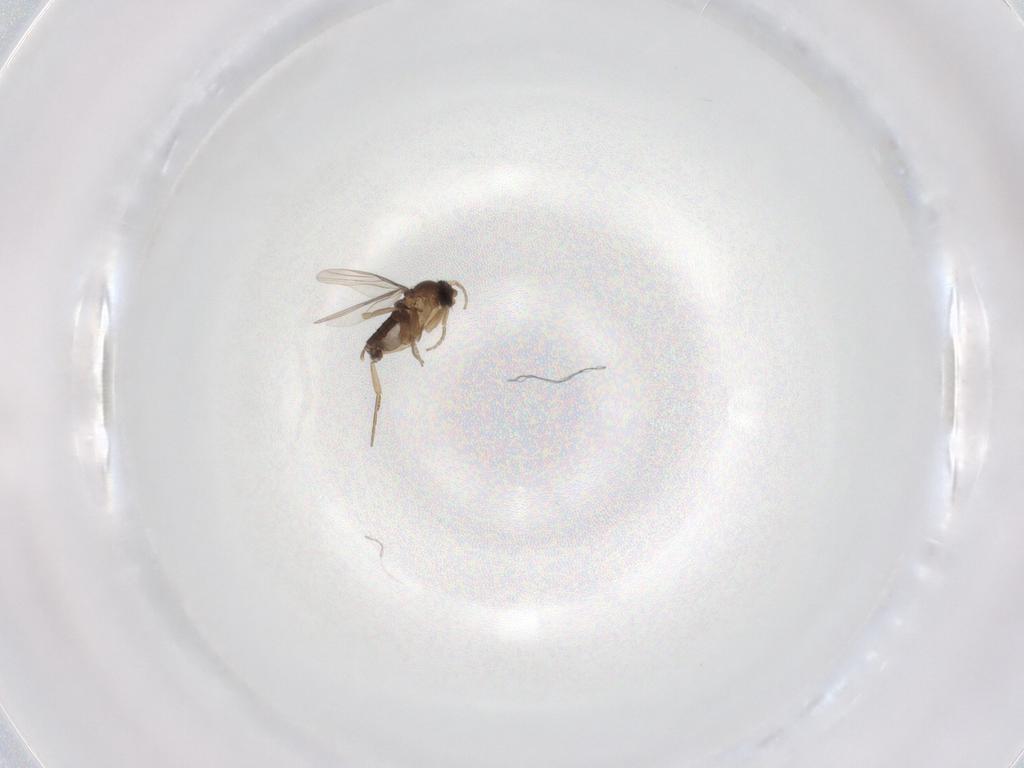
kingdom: Animalia
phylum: Arthropoda
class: Insecta
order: Diptera
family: Phoridae
